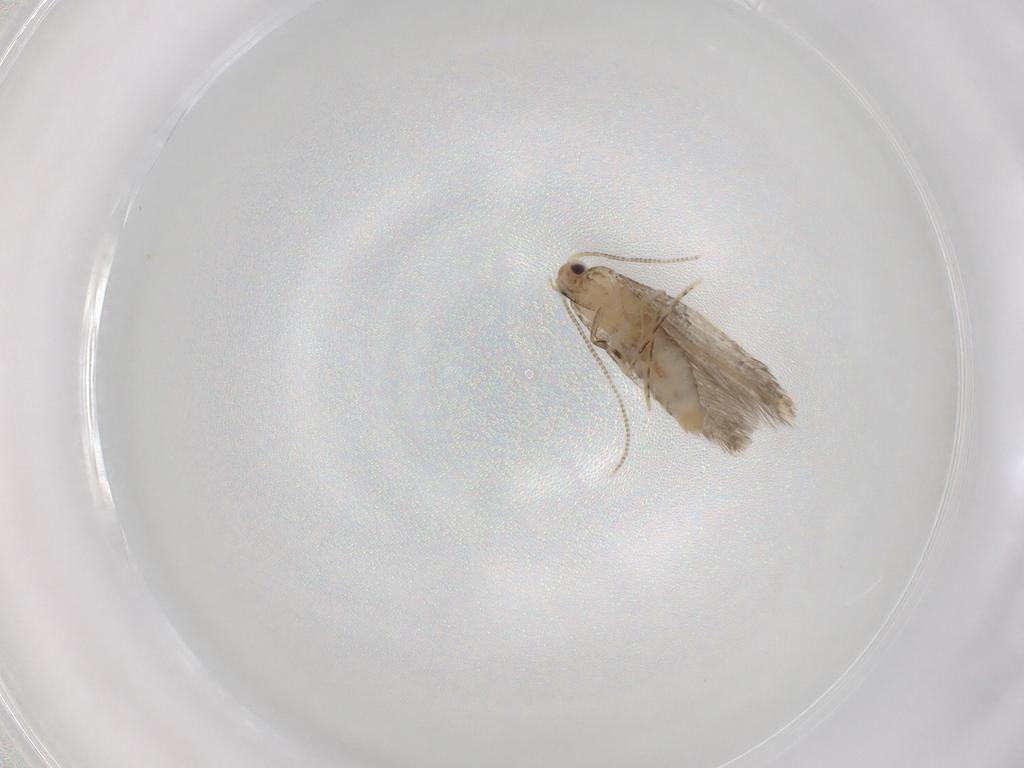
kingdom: Animalia
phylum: Arthropoda
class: Insecta
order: Lepidoptera
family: Tineidae
